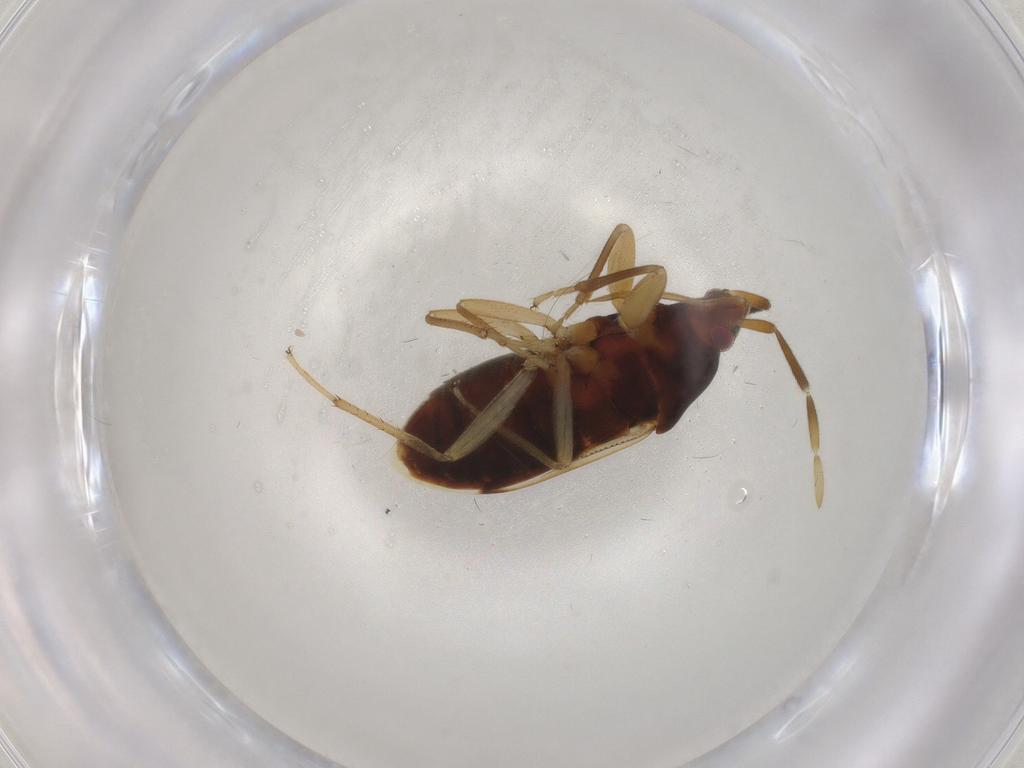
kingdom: Animalia
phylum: Arthropoda
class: Insecta
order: Hemiptera
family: Rhyparochromidae
